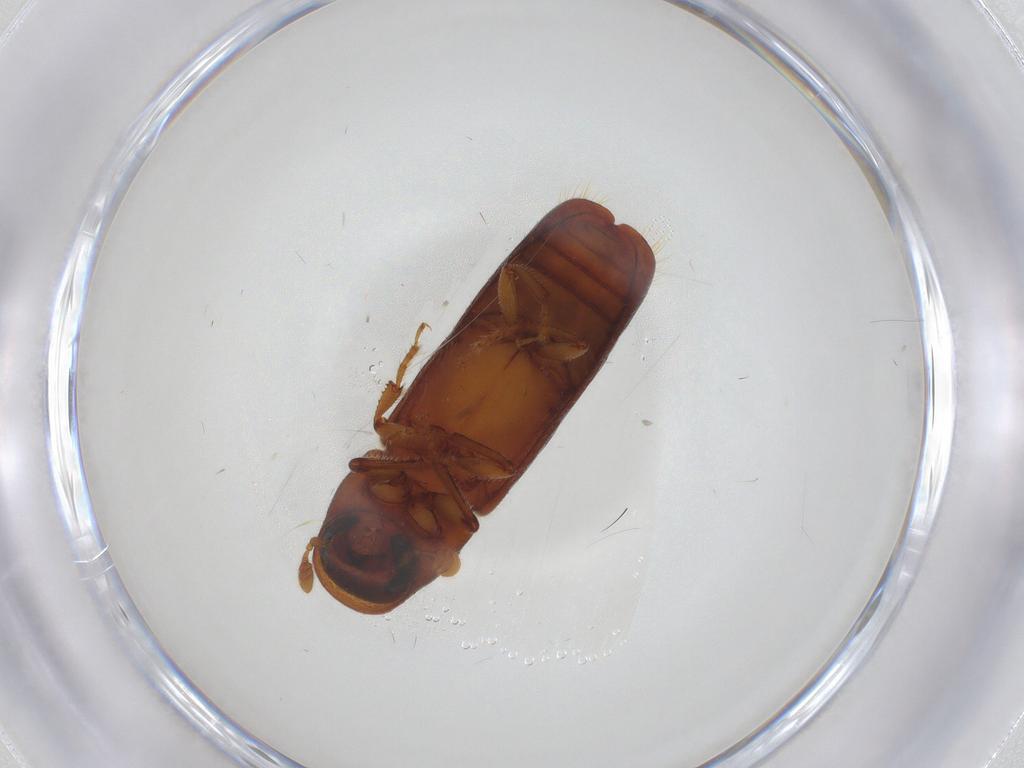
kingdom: Animalia
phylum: Arthropoda
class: Insecta
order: Coleoptera
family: Curculionidae
